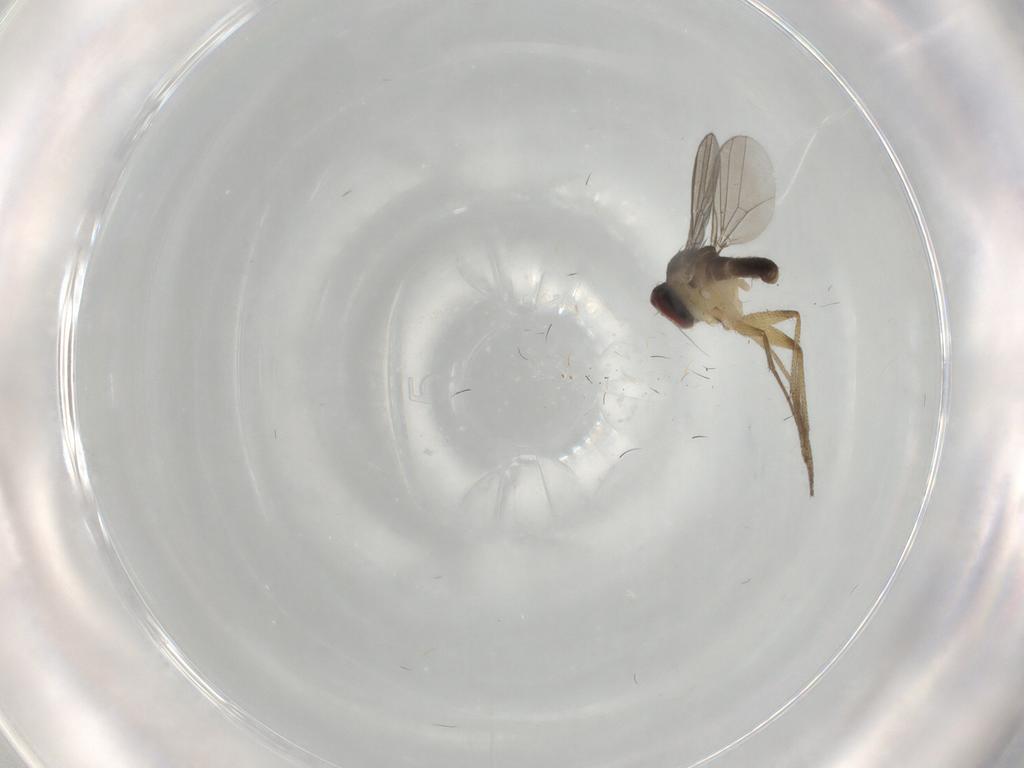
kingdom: Animalia
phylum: Arthropoda
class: Insecta
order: Diptera
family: Dolichopodidae
